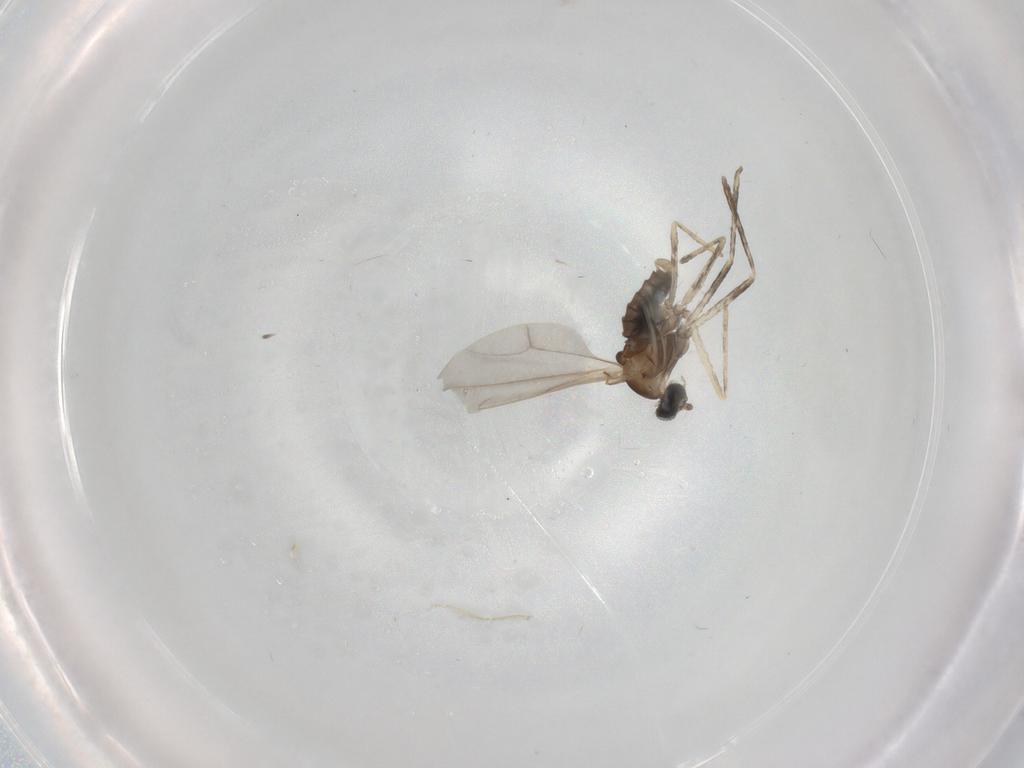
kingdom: Animalia
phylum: Arthropoda
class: Insecta
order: Diptera
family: Cecidomyiidae
